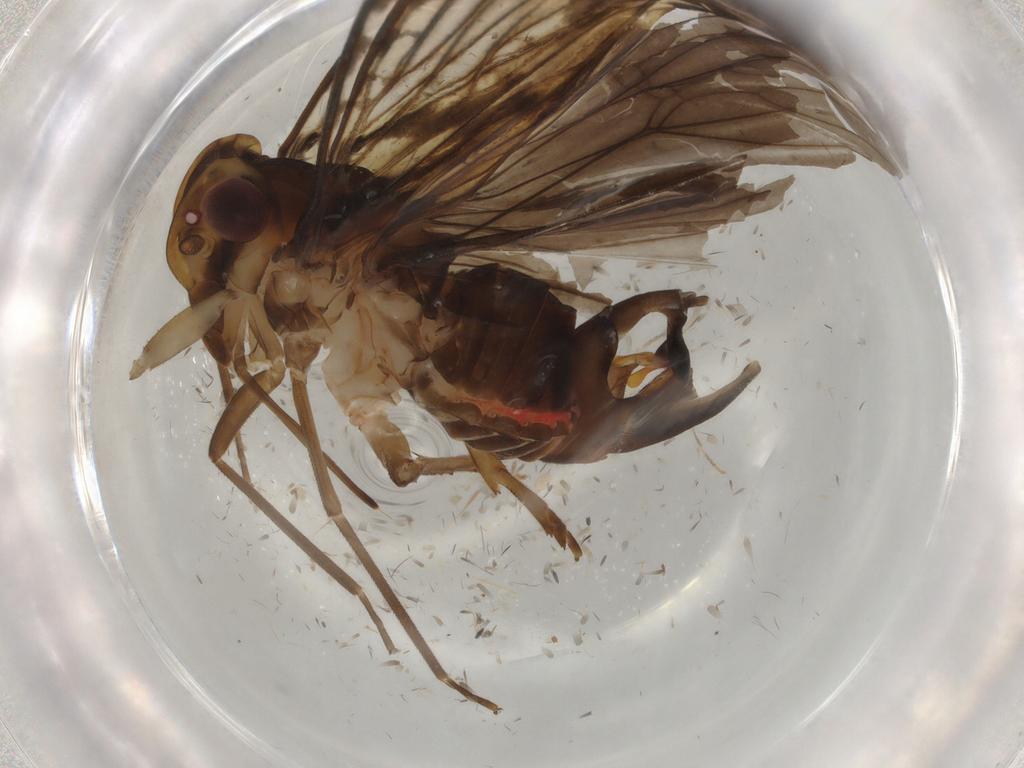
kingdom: Animalia
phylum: Arthropoda
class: Insecta
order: Hemiptera
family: Cixiidae
